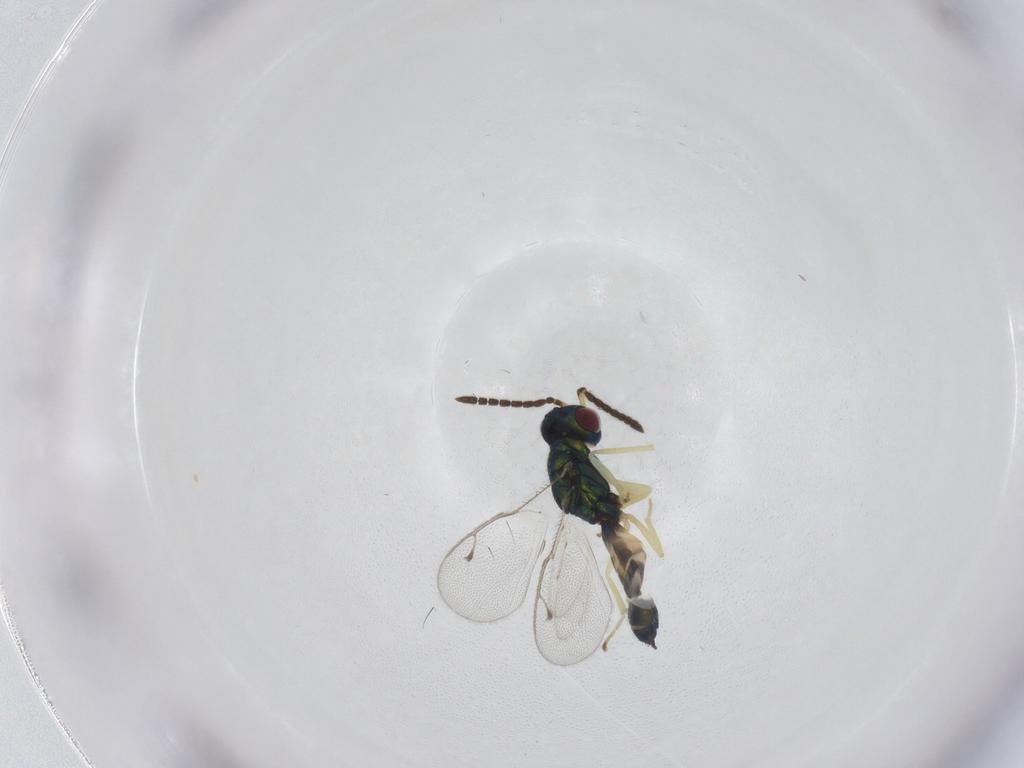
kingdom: Animalia
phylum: Arthropoda
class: Insecta
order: Hymenoptera
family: Pteromalidae
